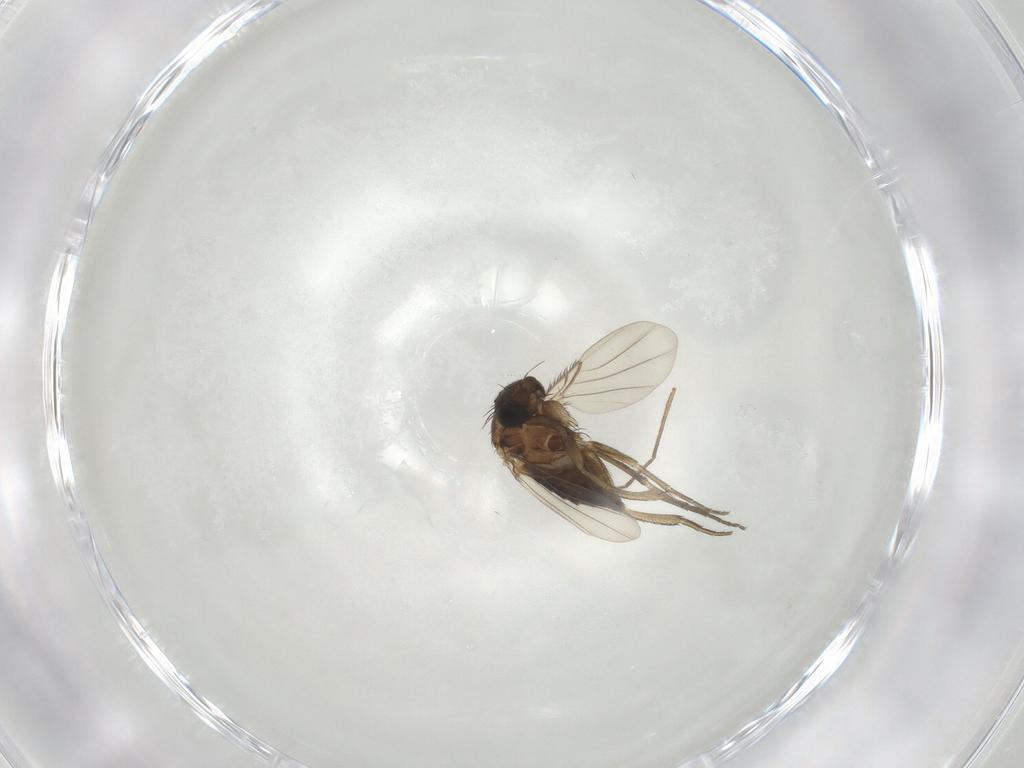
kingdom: Animalia
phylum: Arthropoda
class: Insecta
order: Diptera
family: Phoridae
